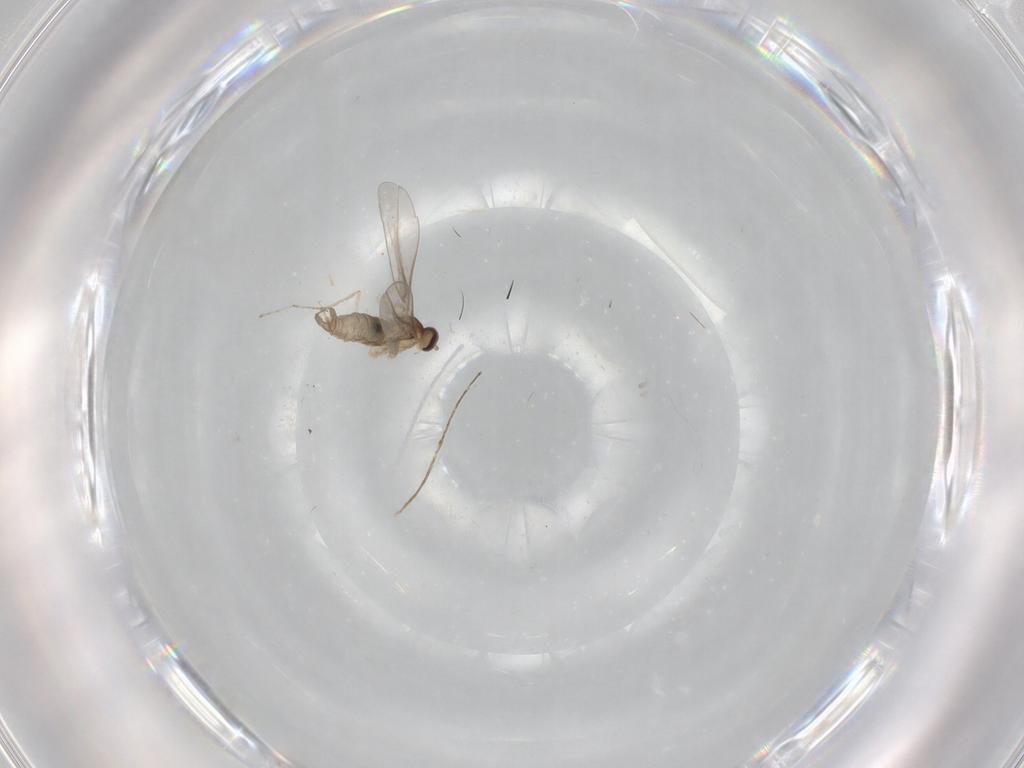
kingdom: Animalia
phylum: Arthropoda
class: Insecta
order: Diptera
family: Cecidomyiidae
